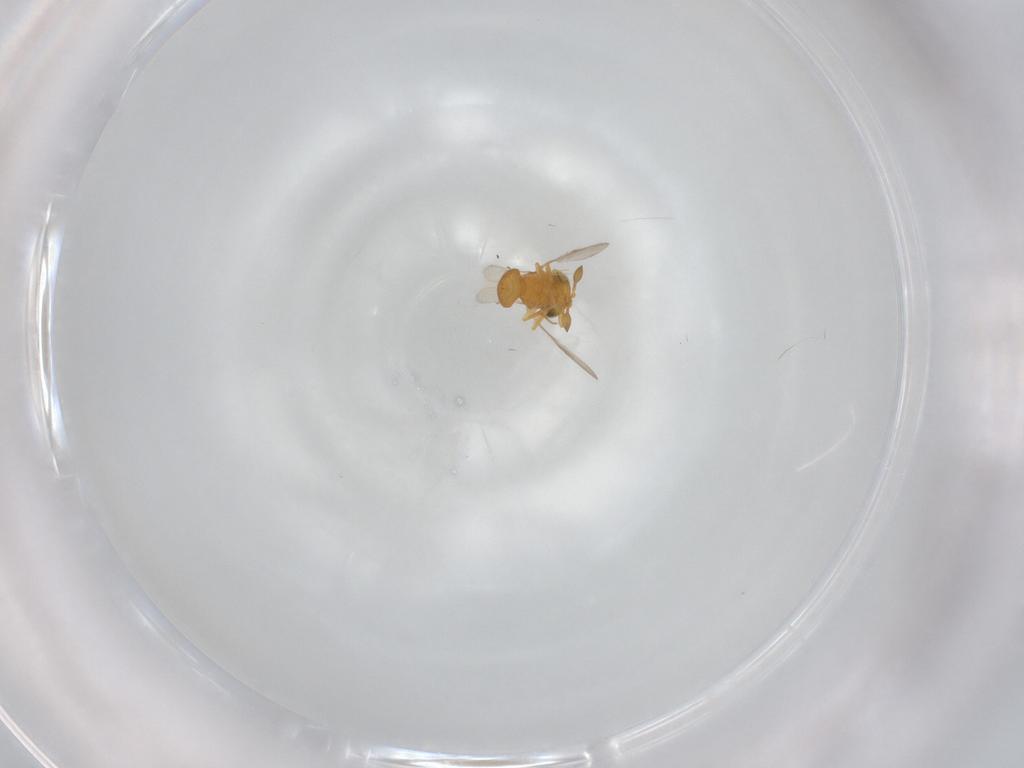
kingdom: Animalia
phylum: Arthropoda
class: Insecta
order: Hymenoptera
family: Scelionidae
